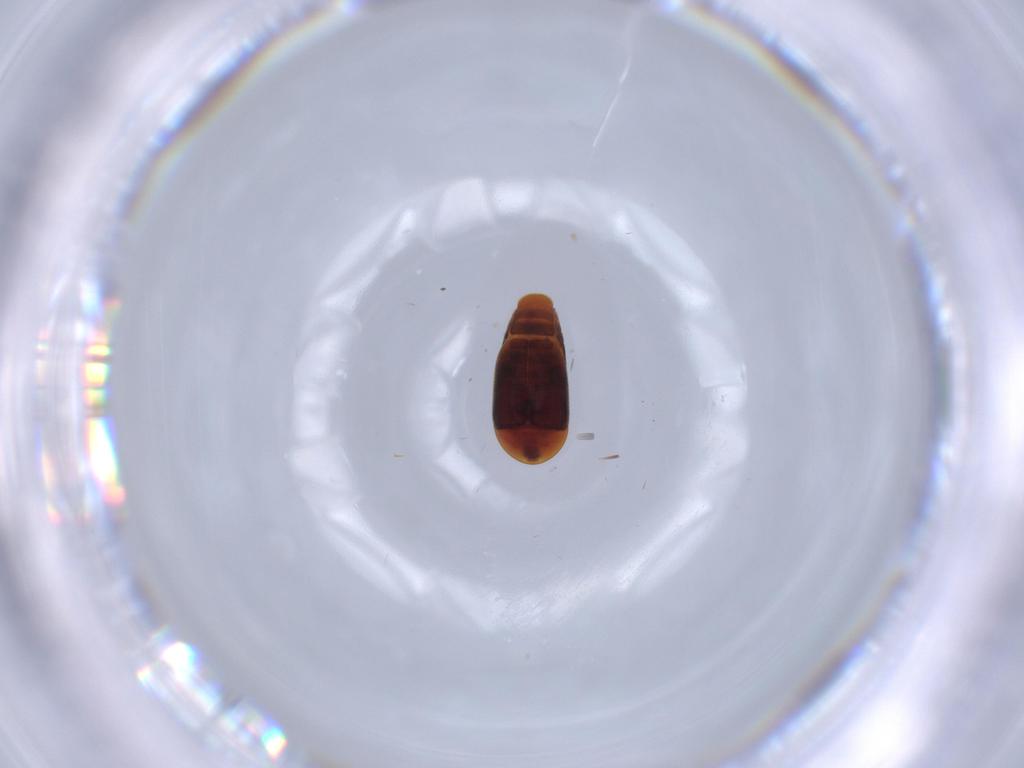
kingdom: Animalia
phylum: Arthropoda
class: Insecta
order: Coleoptera
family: Corylophidae
